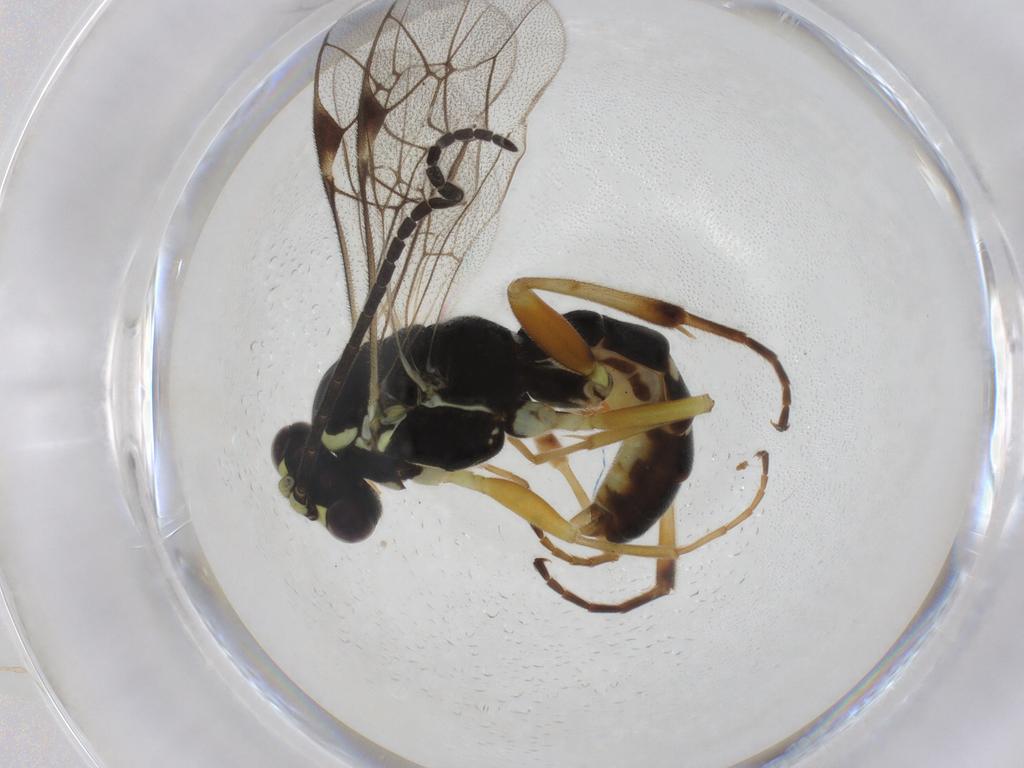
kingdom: Animalia
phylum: Arthropoda
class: Insecta
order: Hymenoptera
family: Ichneumonidae
